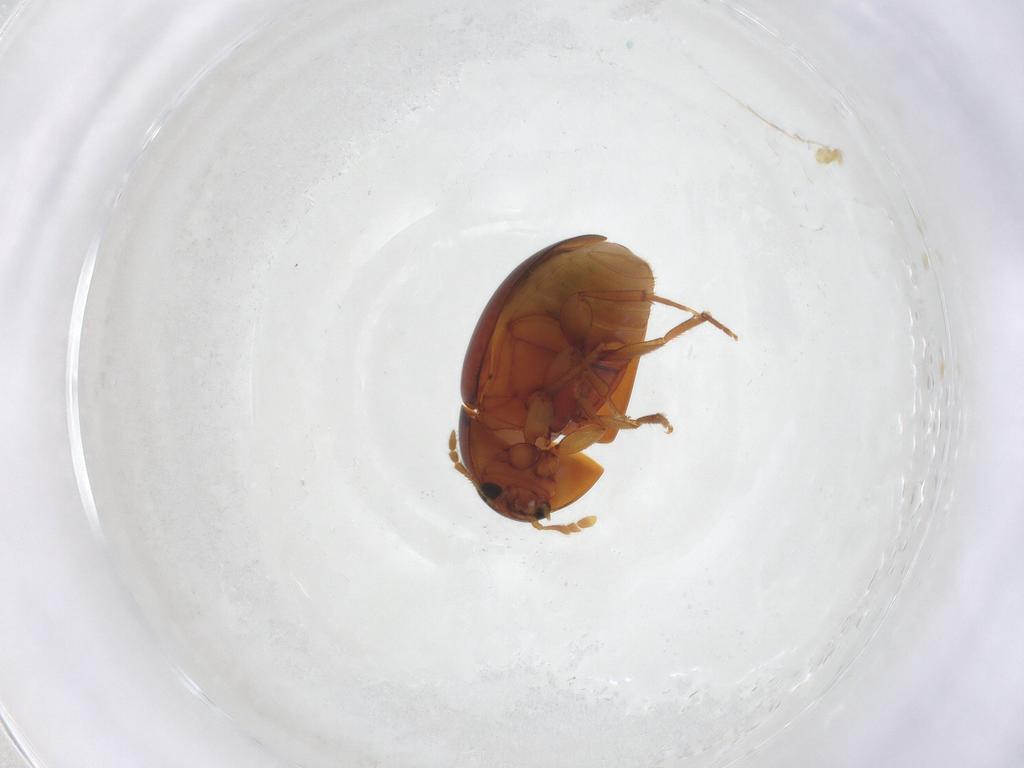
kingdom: Animalia
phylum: Arthropoda
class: Insecta
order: Coleoptera
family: Phalacridae
